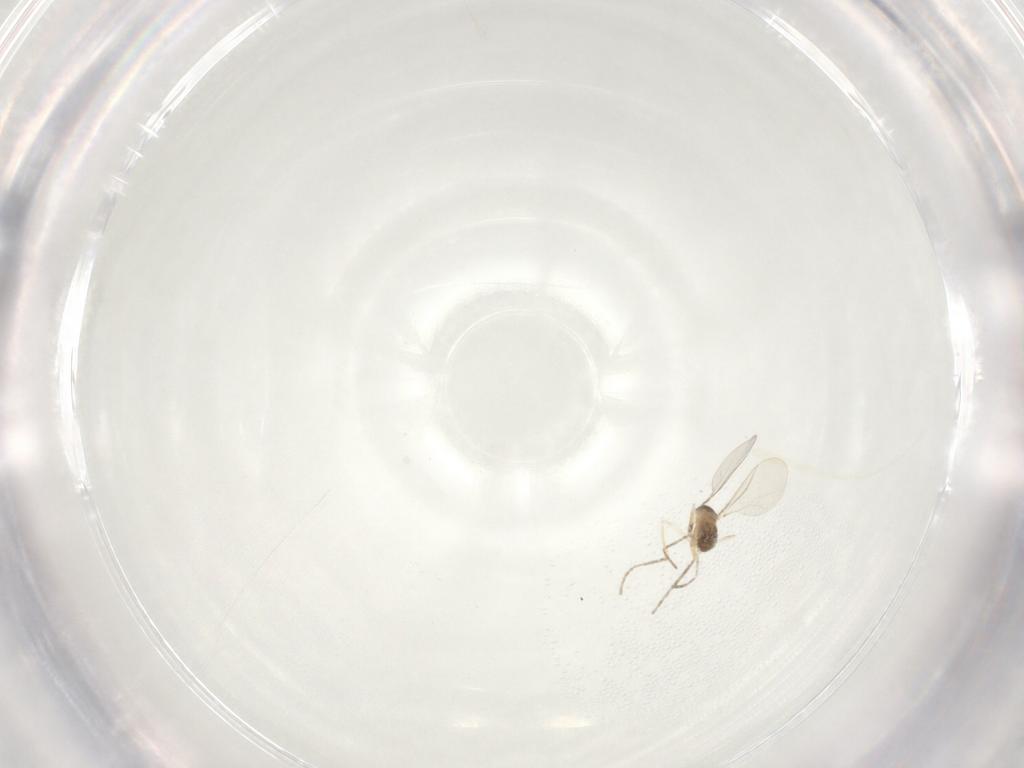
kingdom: Animalia
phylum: Arthropoda
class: Insecta
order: Diptera
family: Cecidomyiidae
